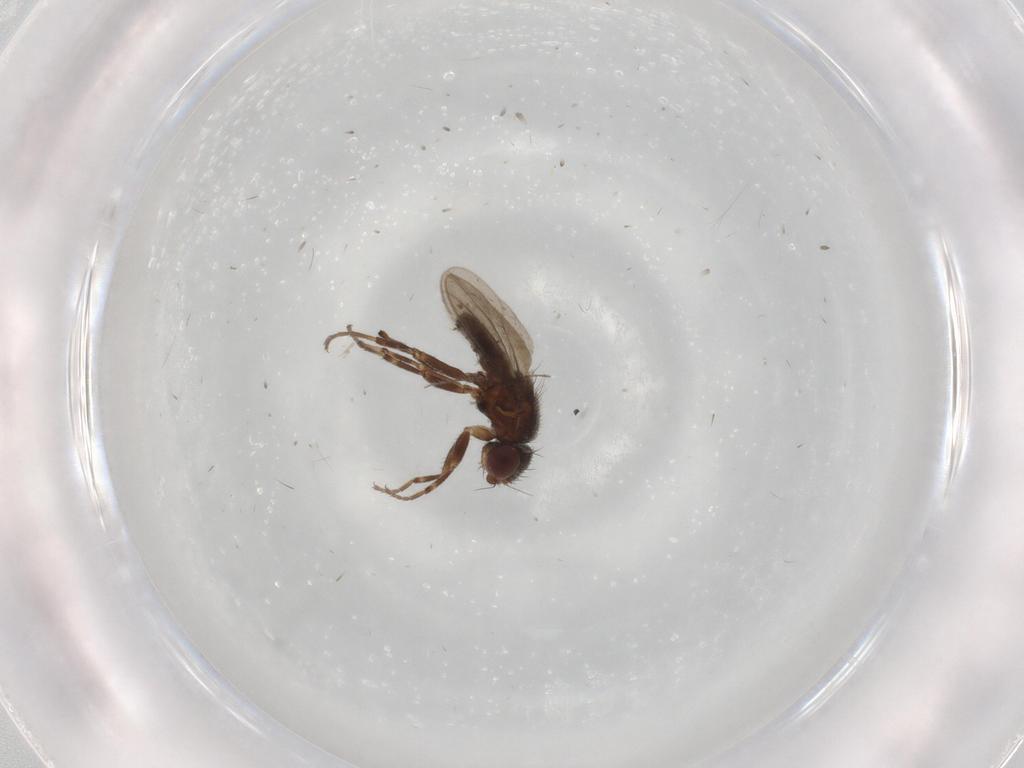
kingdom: Animalia
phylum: Arthropoda
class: Insecta
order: Diptera
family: Chloropidae
